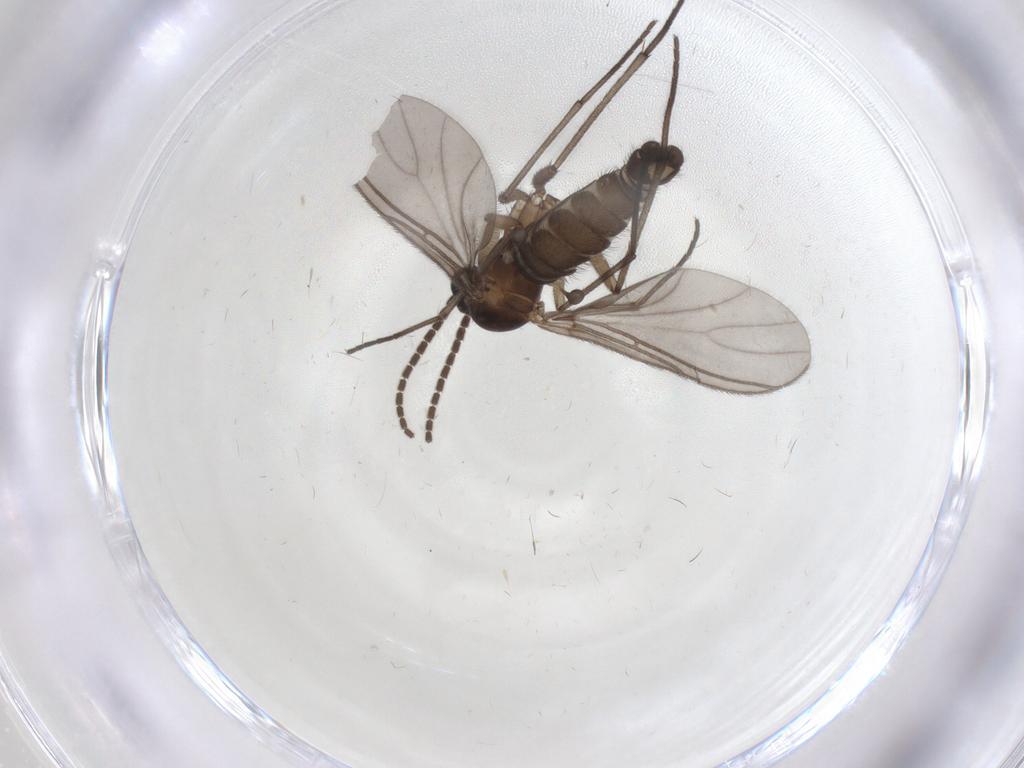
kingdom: Animalia
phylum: Arthropoda
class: Insecta
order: Diptera
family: Sciaridae
